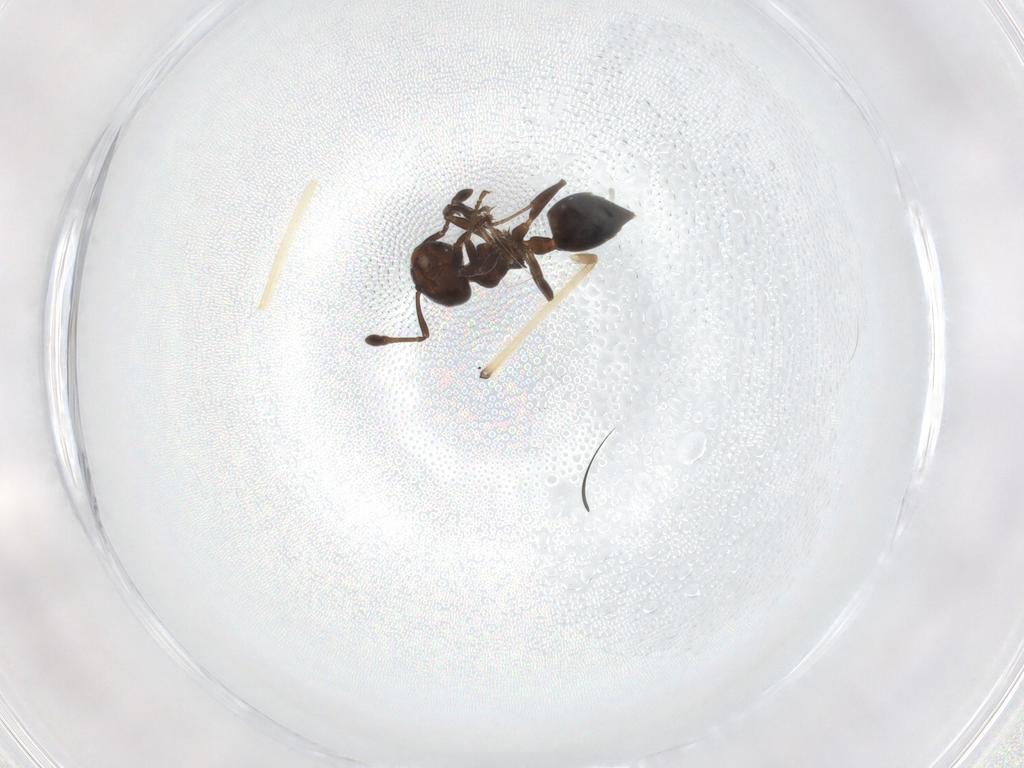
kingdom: Animalia
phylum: Arthropoda
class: Insecta
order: Hymenoptera
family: Formicidae
